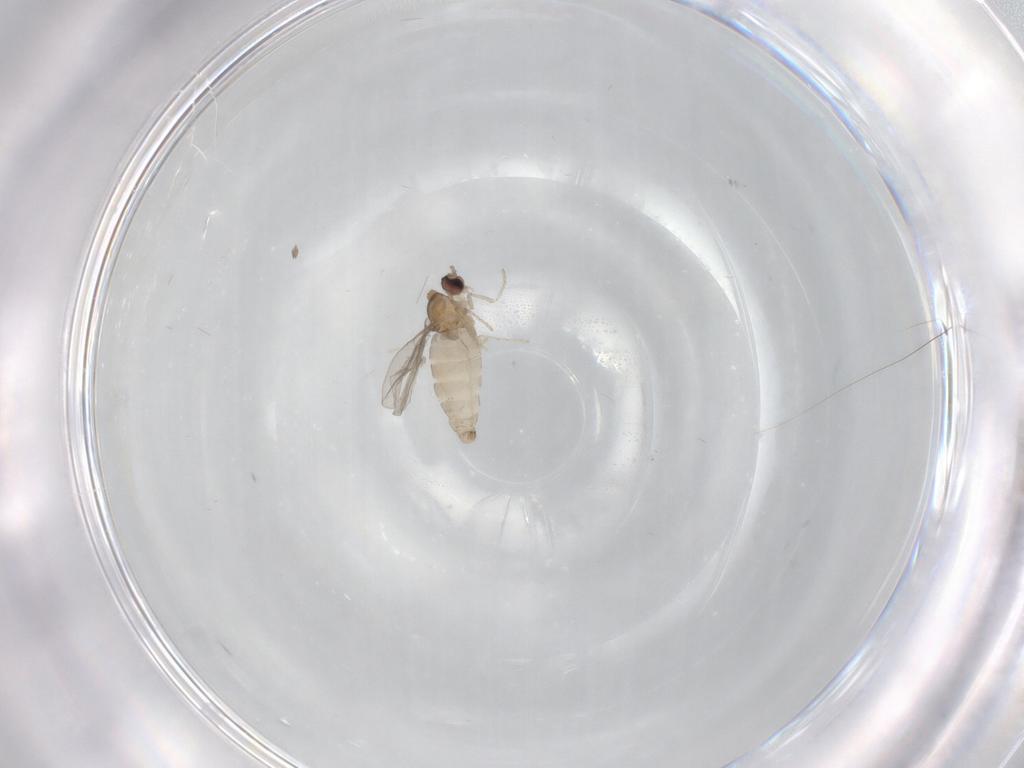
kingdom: Animalia
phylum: Arthropoda
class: Insecta
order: Diptera
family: Cecidomyiidae
